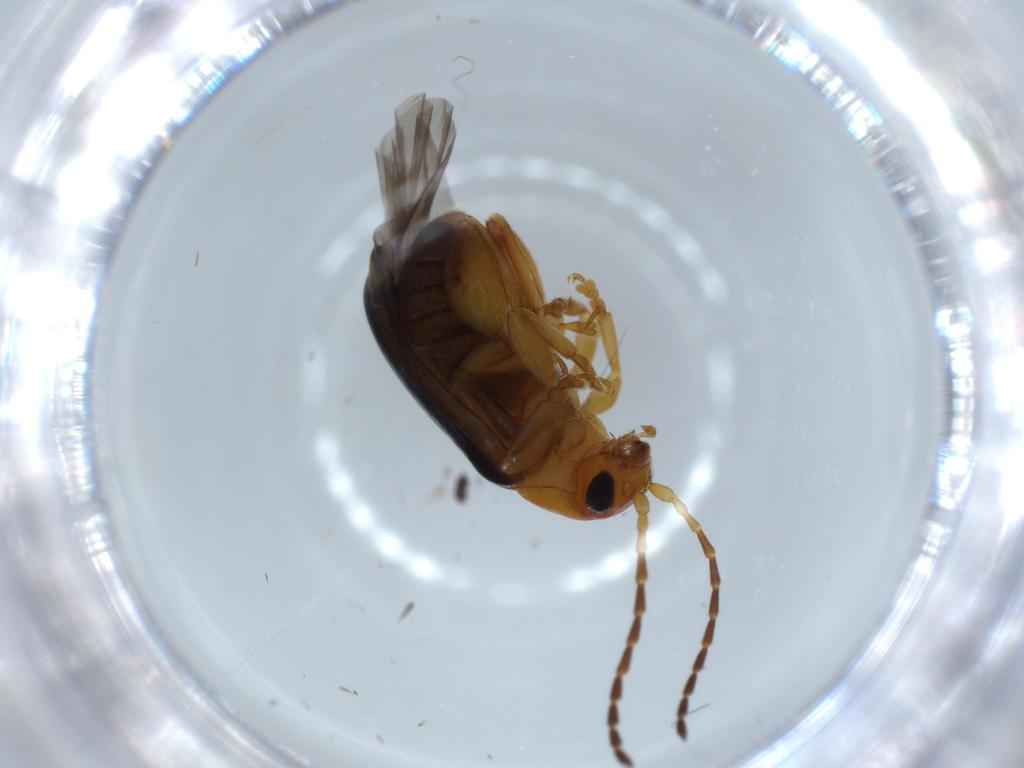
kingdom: Animalia
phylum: Arthropoda
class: Insecta
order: Coleoptera
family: Chrysomelidae
